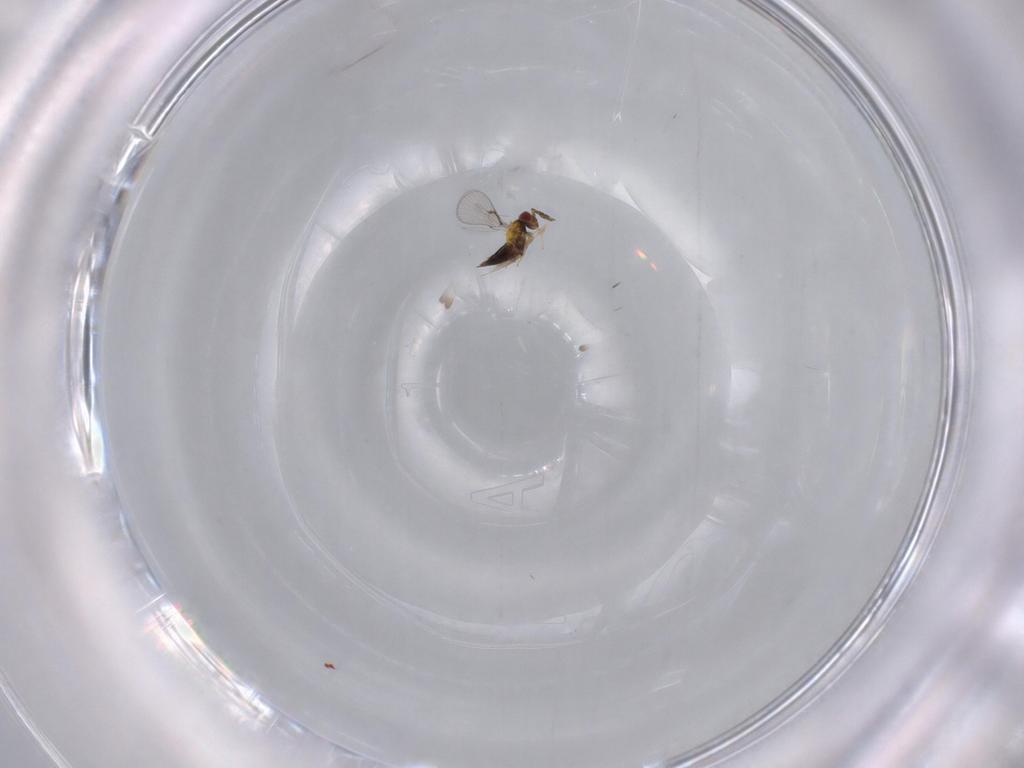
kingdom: Animalia
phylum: Arthropoda
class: Insecta
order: Hymenoptera
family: Trichogrammatidae
